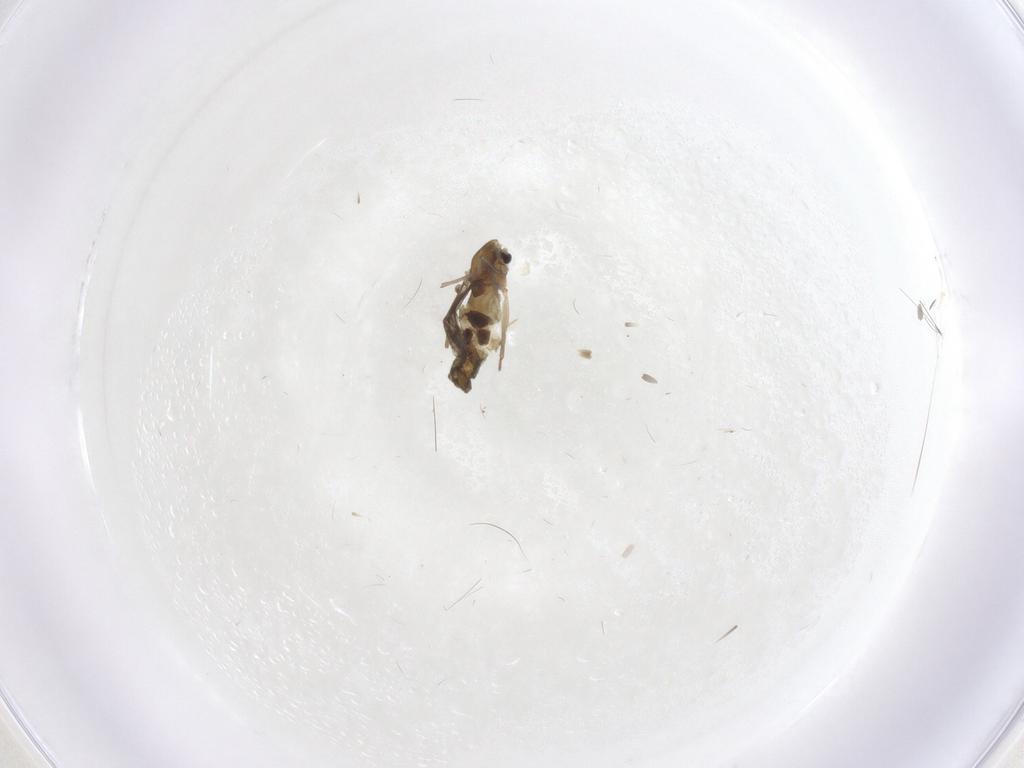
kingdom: Animalia
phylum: Arthropoda
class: Insecta
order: Diptera
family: Chironomidae
